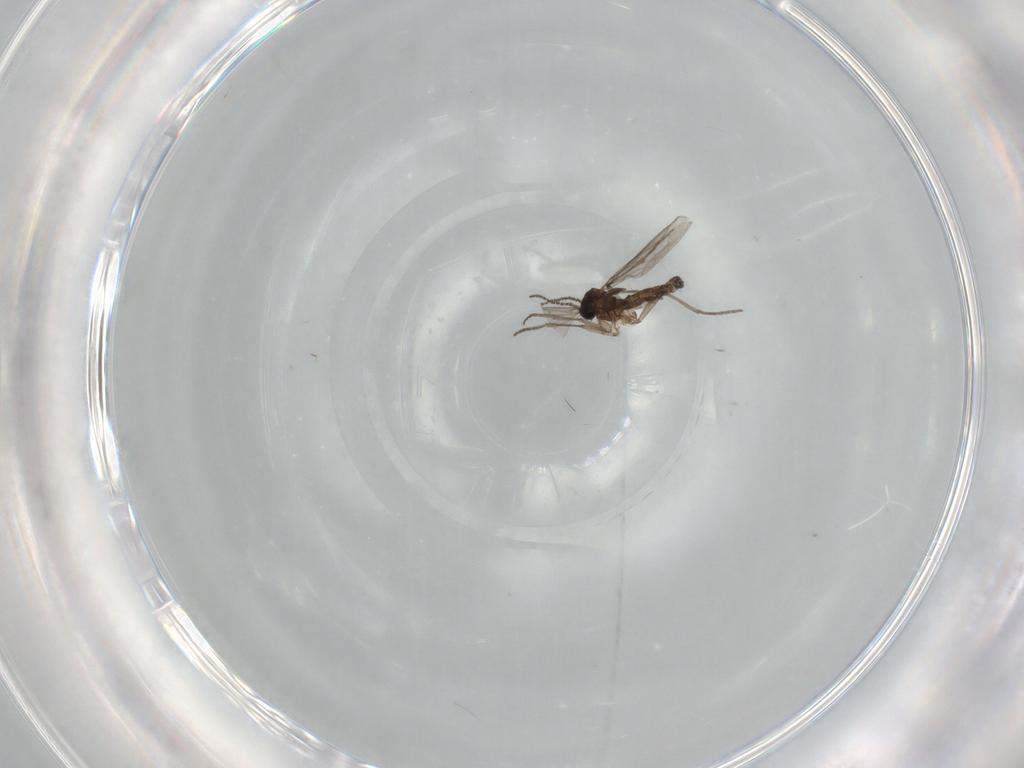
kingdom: Animalia
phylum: Arthropoda
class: Insecta
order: Diptera
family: Cecidomyiidae
